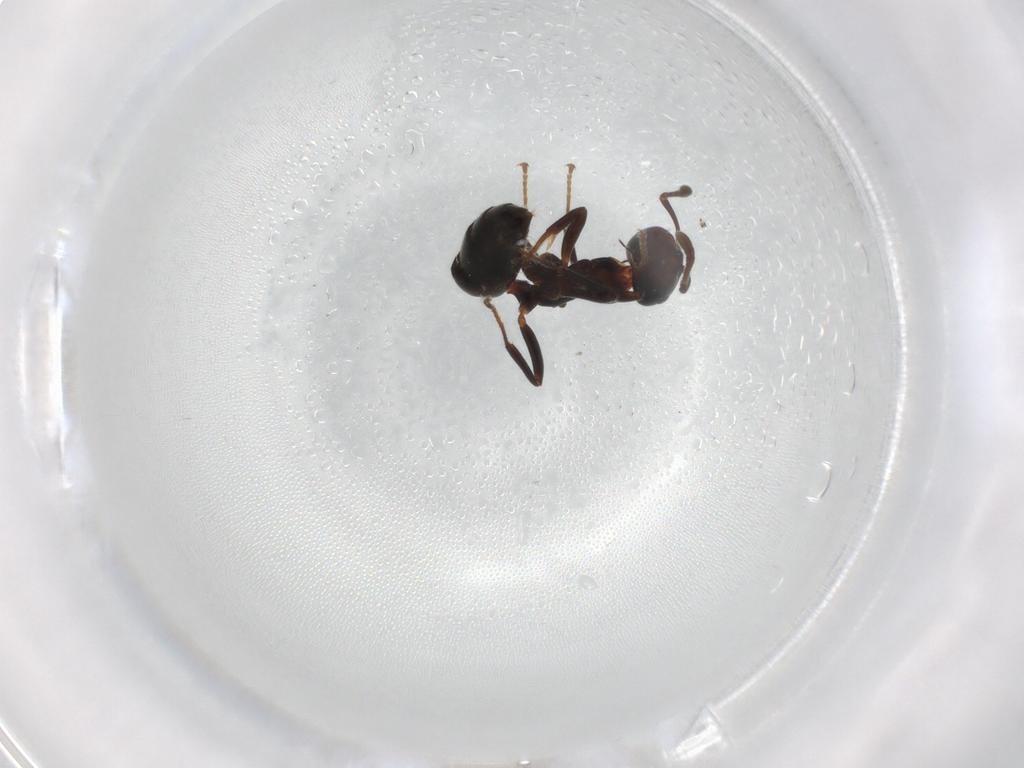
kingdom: Animalia
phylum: Arthropoda
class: Insecta
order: Hymenoptera
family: Formicidae
